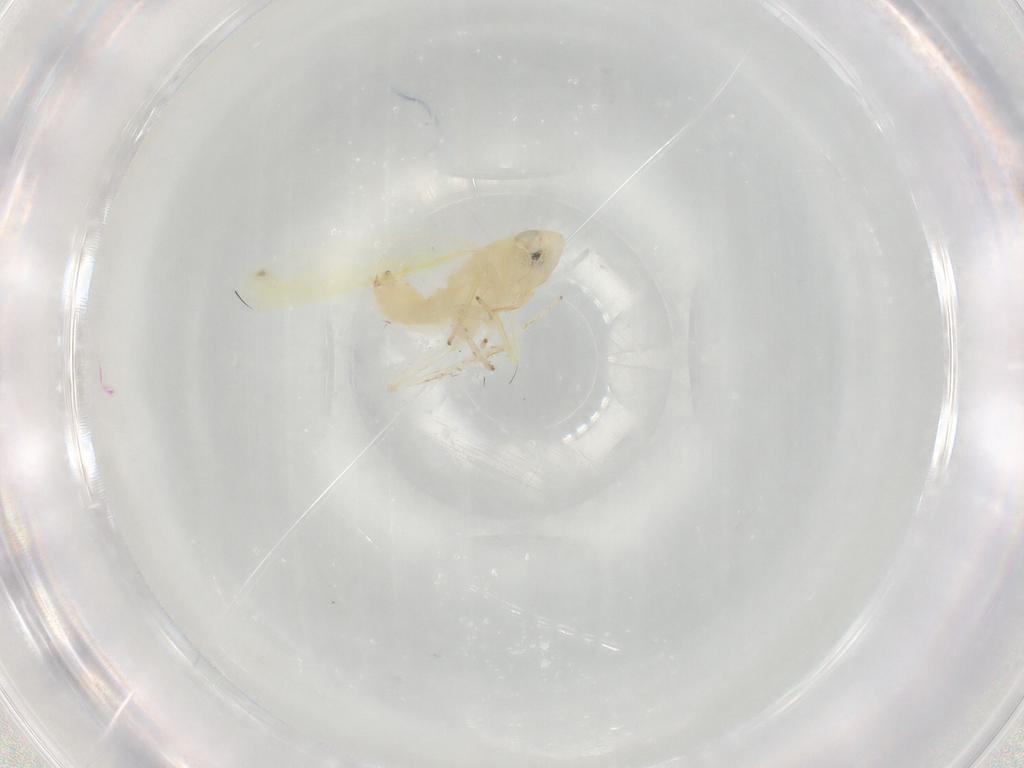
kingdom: Animalia
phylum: Arthropoda
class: Insecta
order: Hemiptera
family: Cicadellidae
